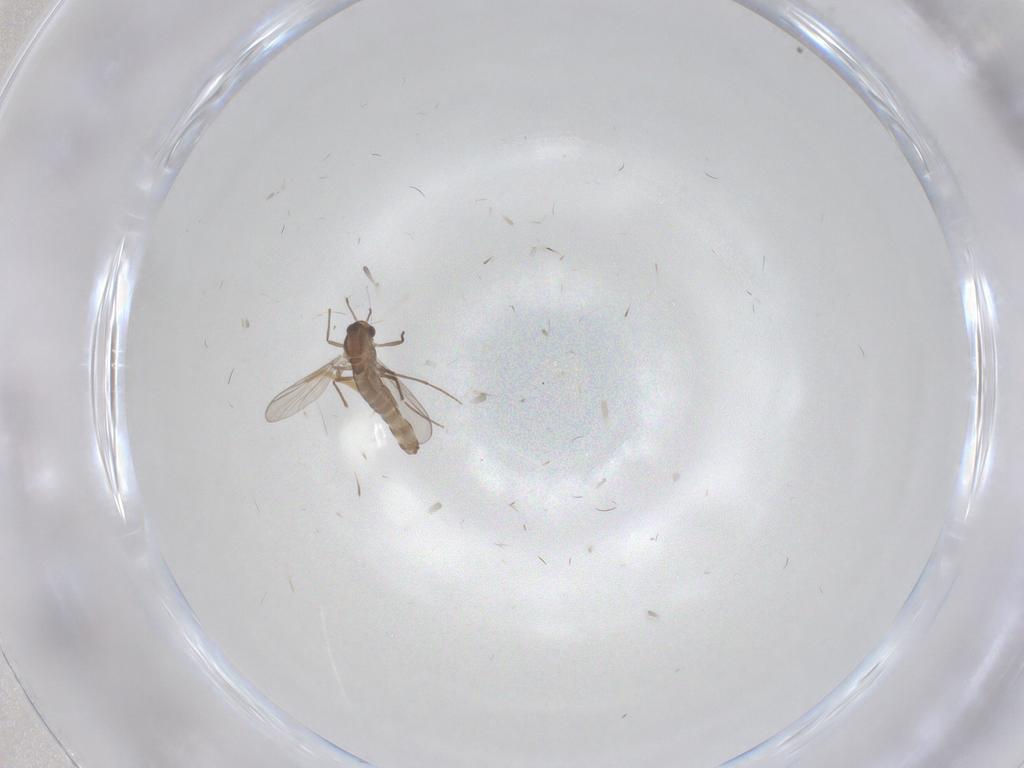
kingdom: Animalia
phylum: Arthropoda
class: Insecta
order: Diptera
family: Chironomidae
